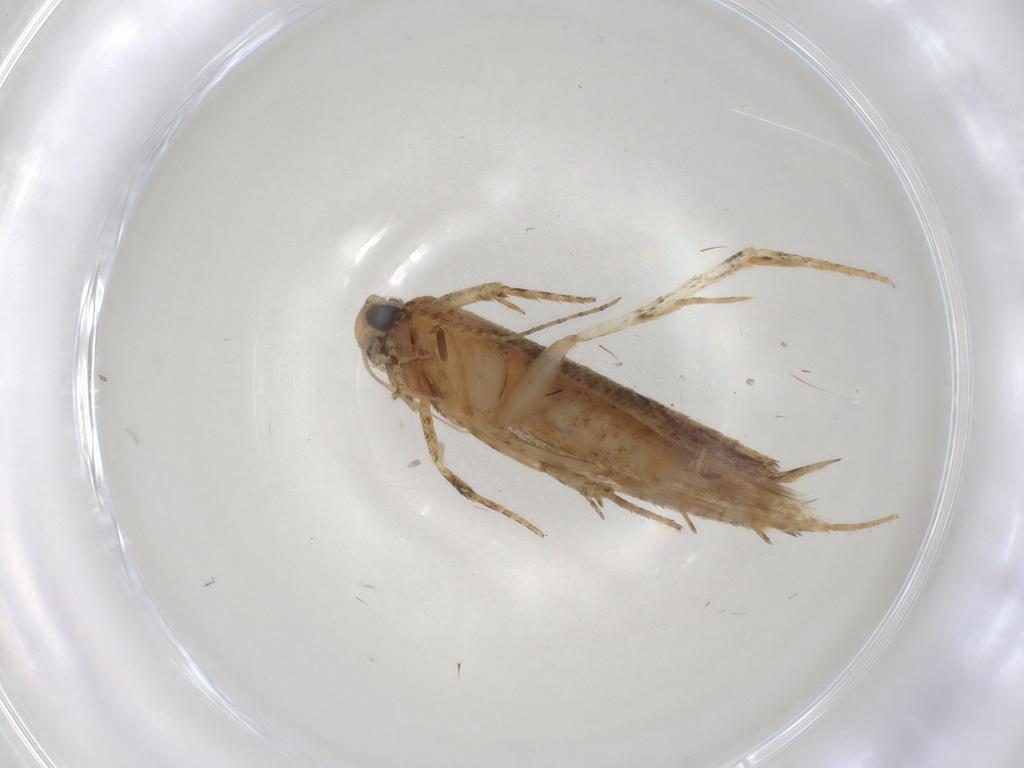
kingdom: Animalia
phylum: Arthropoda
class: Insecta
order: Lepidoptera
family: Gelechiidae
